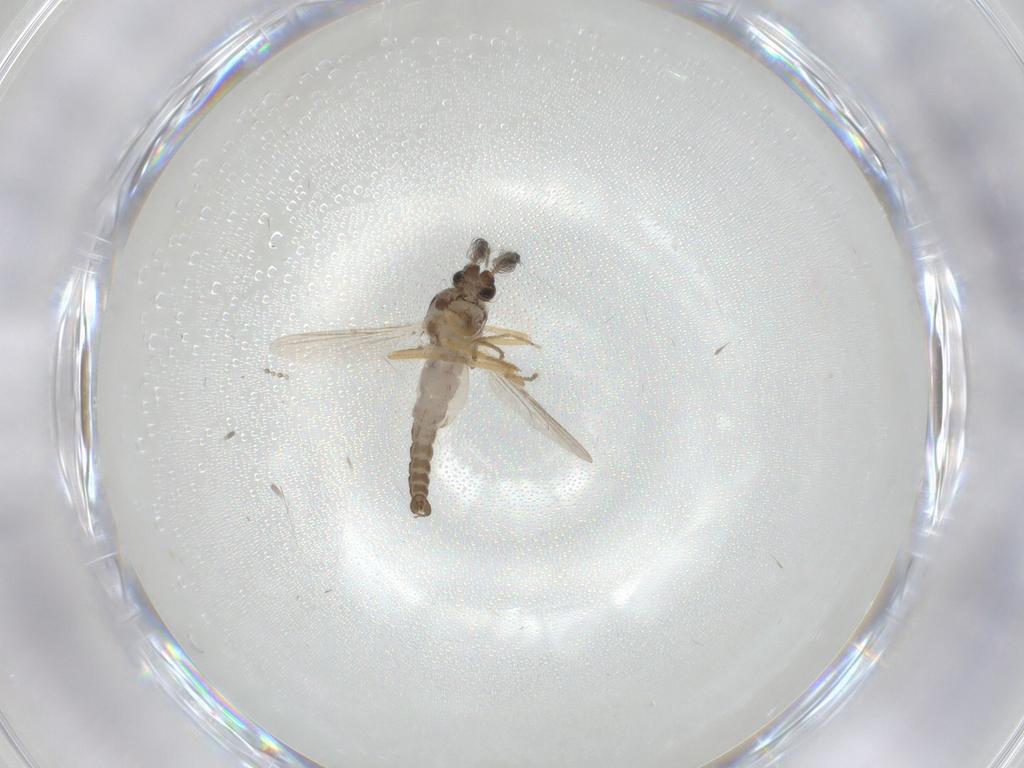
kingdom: Animalia
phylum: Arthropoda
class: Insecta
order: Diptera
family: Ceratopogonidae
